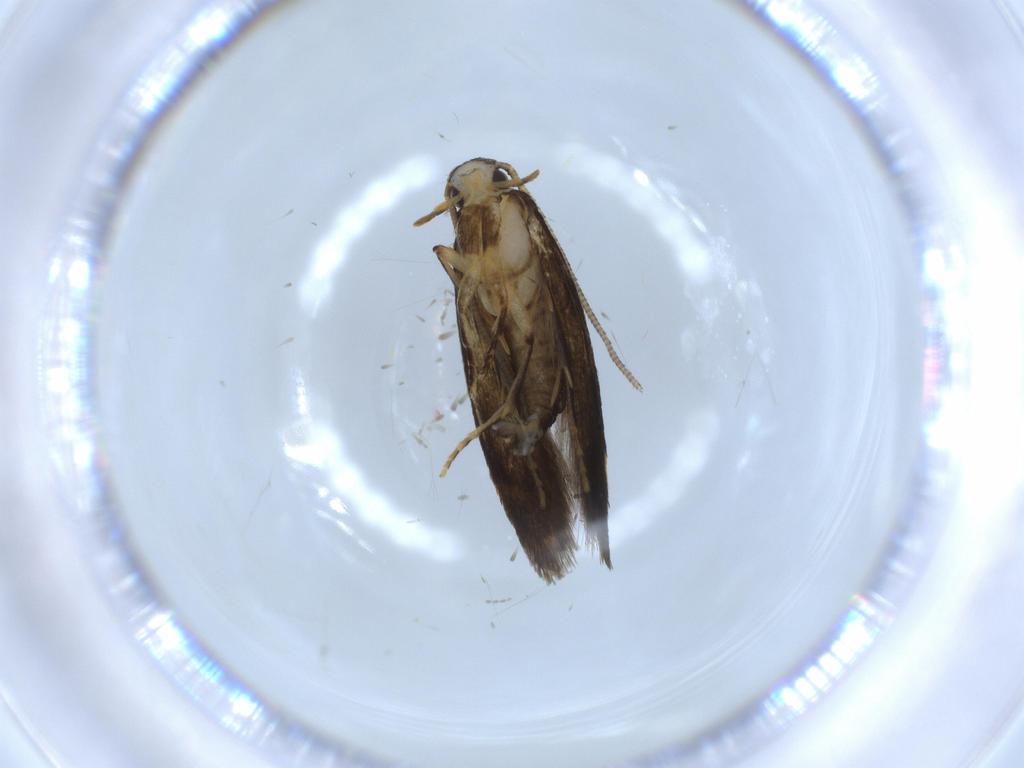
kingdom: Animalia
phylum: Arthropoda
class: Insecta
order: Lepidoptera
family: Tineidae
